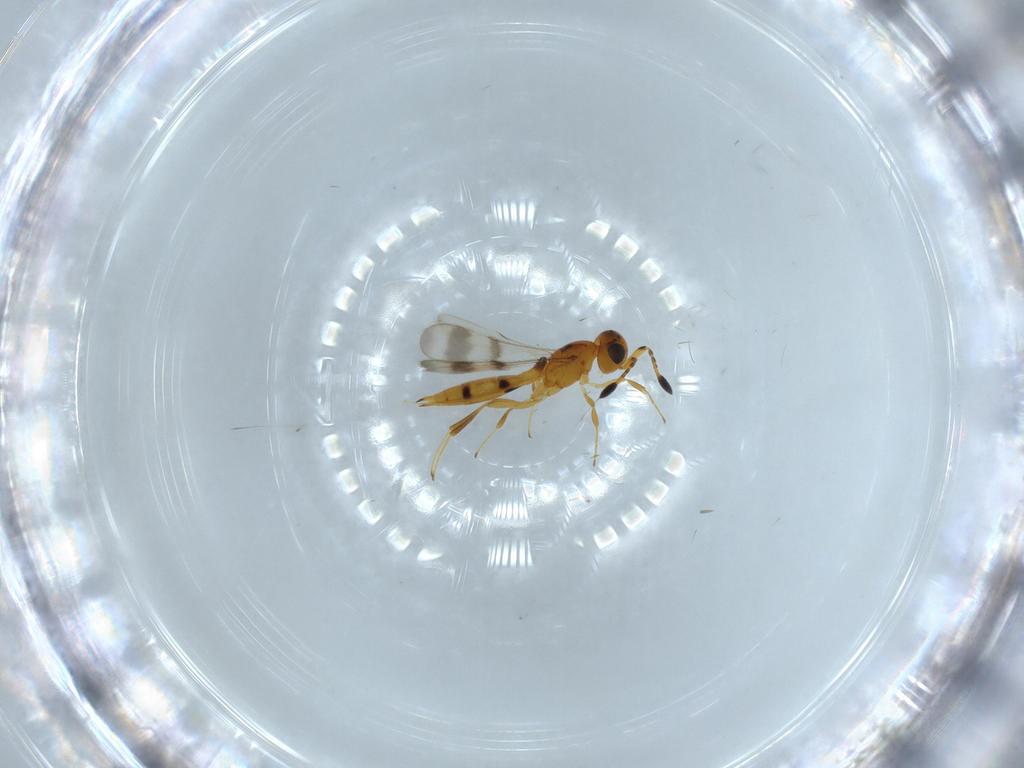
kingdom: Animalia
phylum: Arthropoda
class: Insecta
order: Hymenoptera
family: Scelionidae
